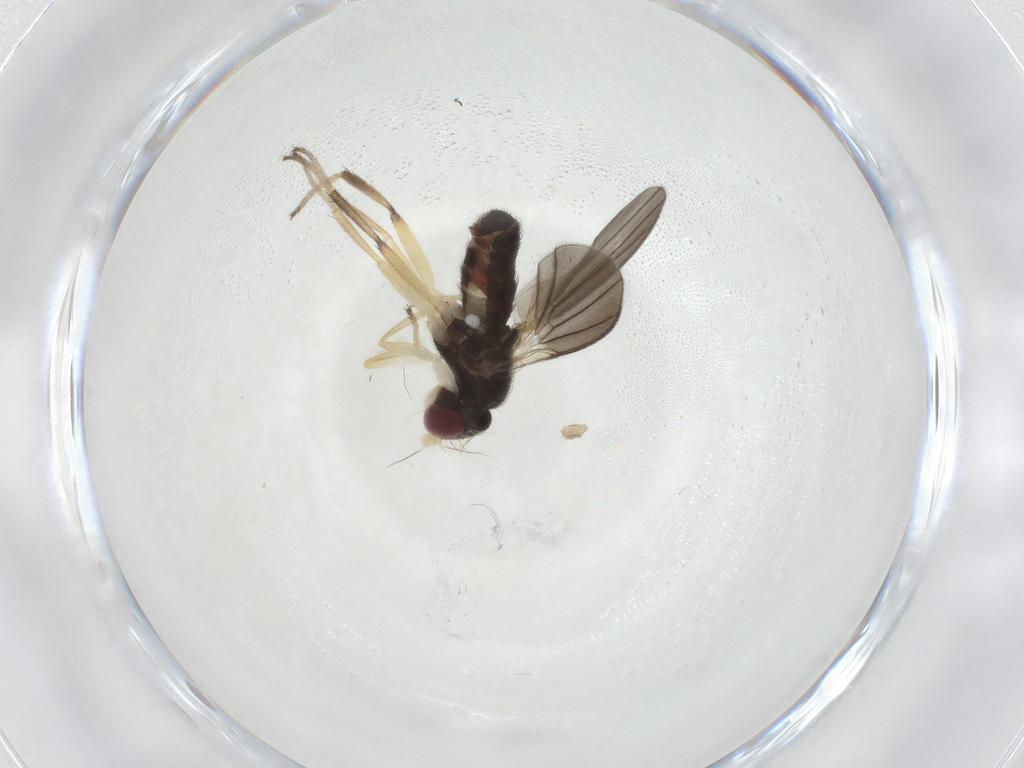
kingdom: Animalia
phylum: Arthropoda
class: Insecta
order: Diptera
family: Clusiidae
